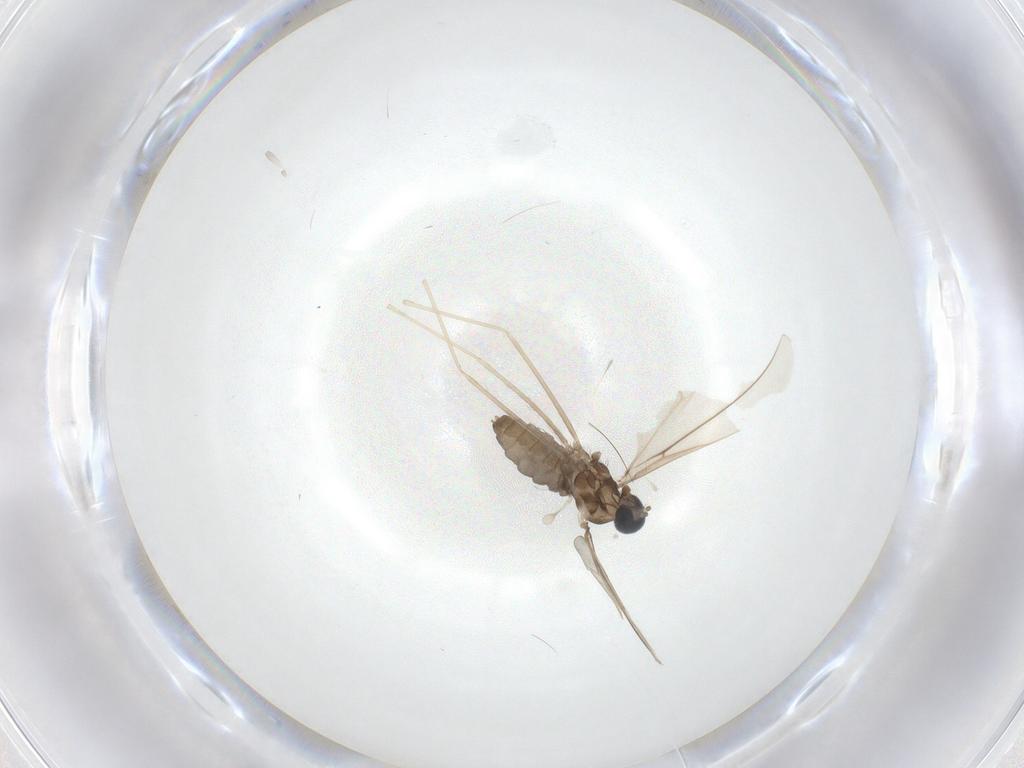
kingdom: Animalia
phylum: Arthropoda
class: Insecta
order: Diptera
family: Cecidomyiidae
